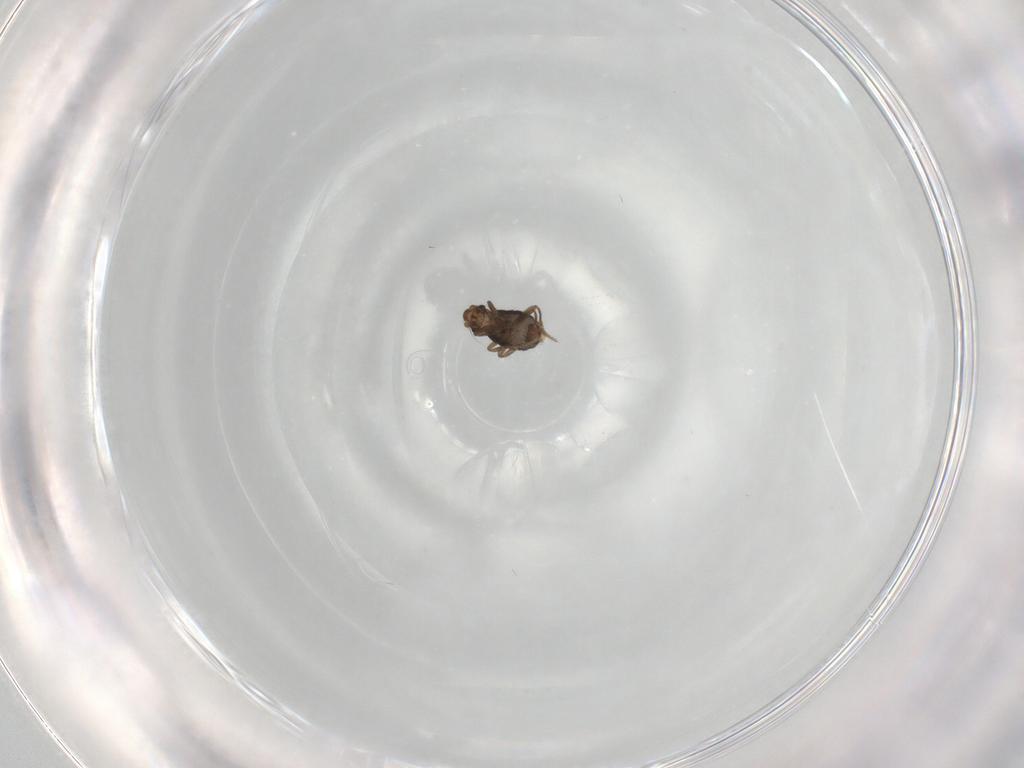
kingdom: Animalia
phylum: Arthropoda
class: Insecta
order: Diptera
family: Phoridae
